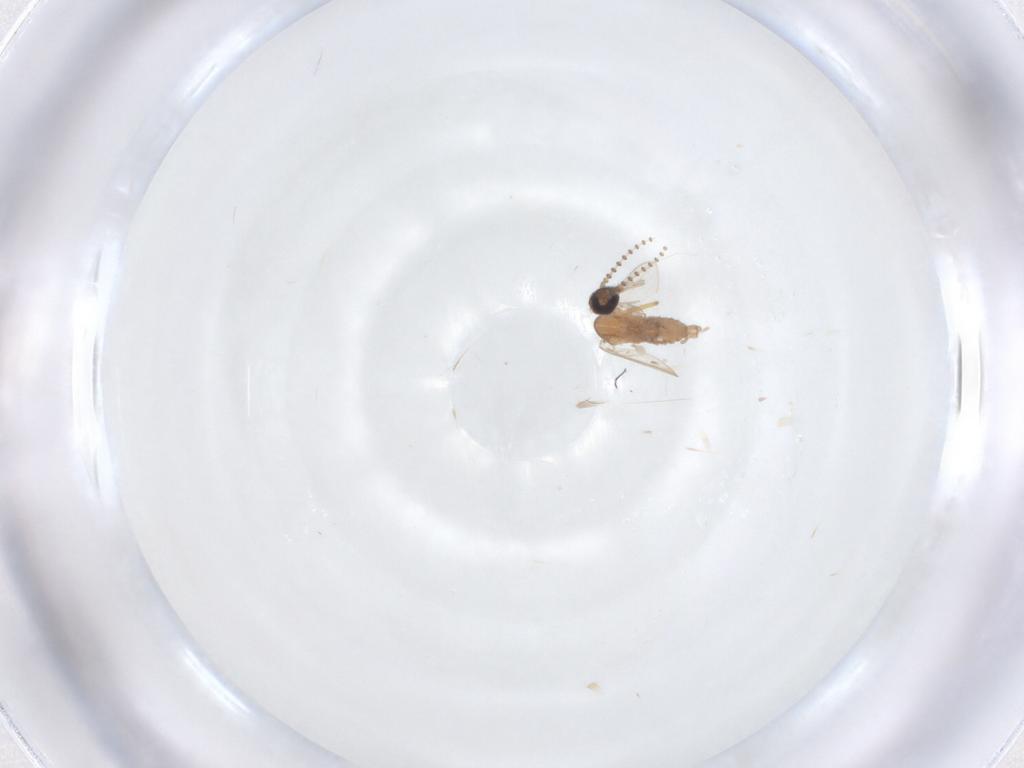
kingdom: Animalia
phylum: Arthropoda
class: Insecta
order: Diptera
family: Psychodidae
